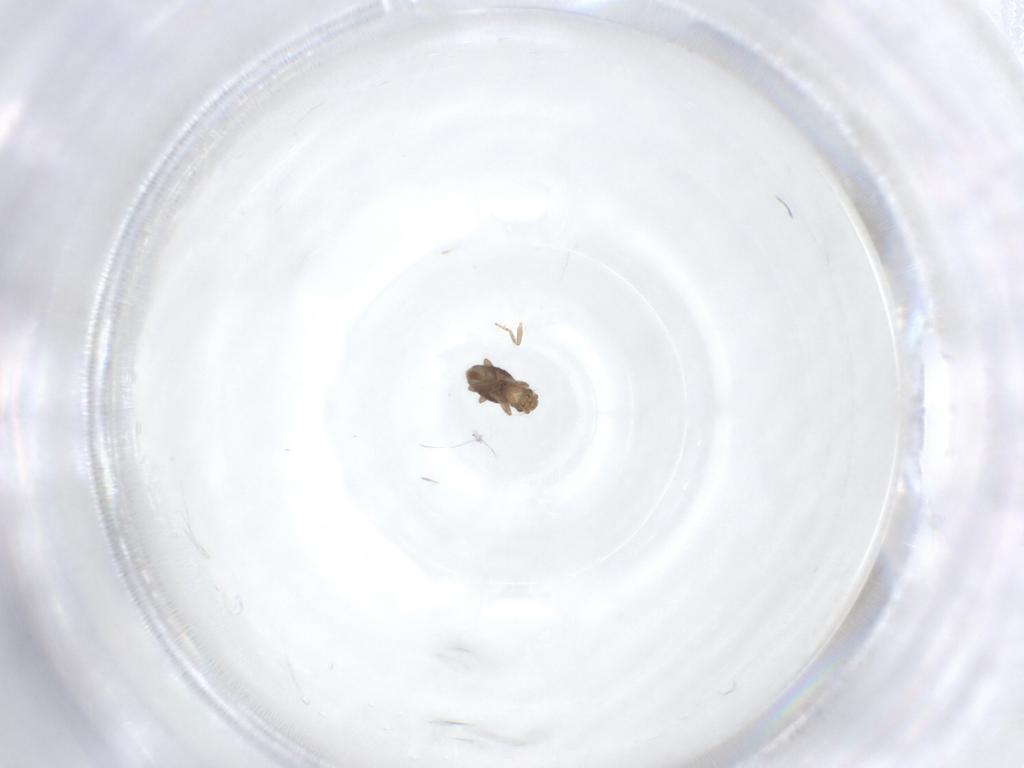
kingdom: Animalia
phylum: Arthropoda
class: Insecta
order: Diptera
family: Phoridae
